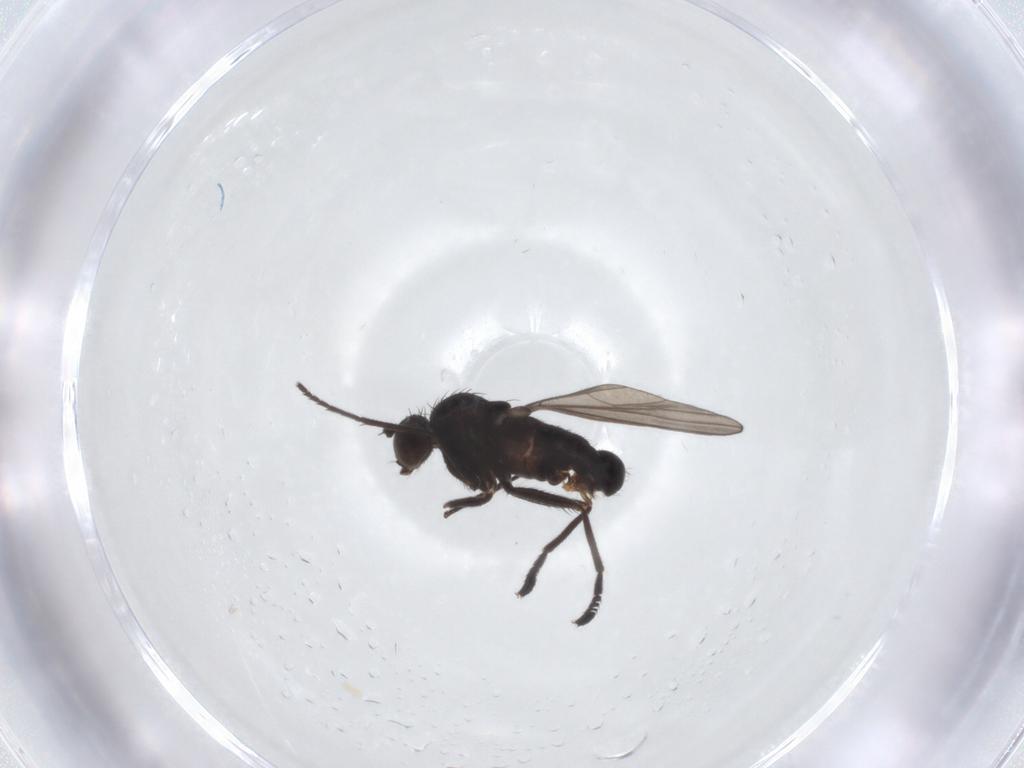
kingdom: Animalia
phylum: Arthropoda
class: Insecta
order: Diptera
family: Dolichopodidae
